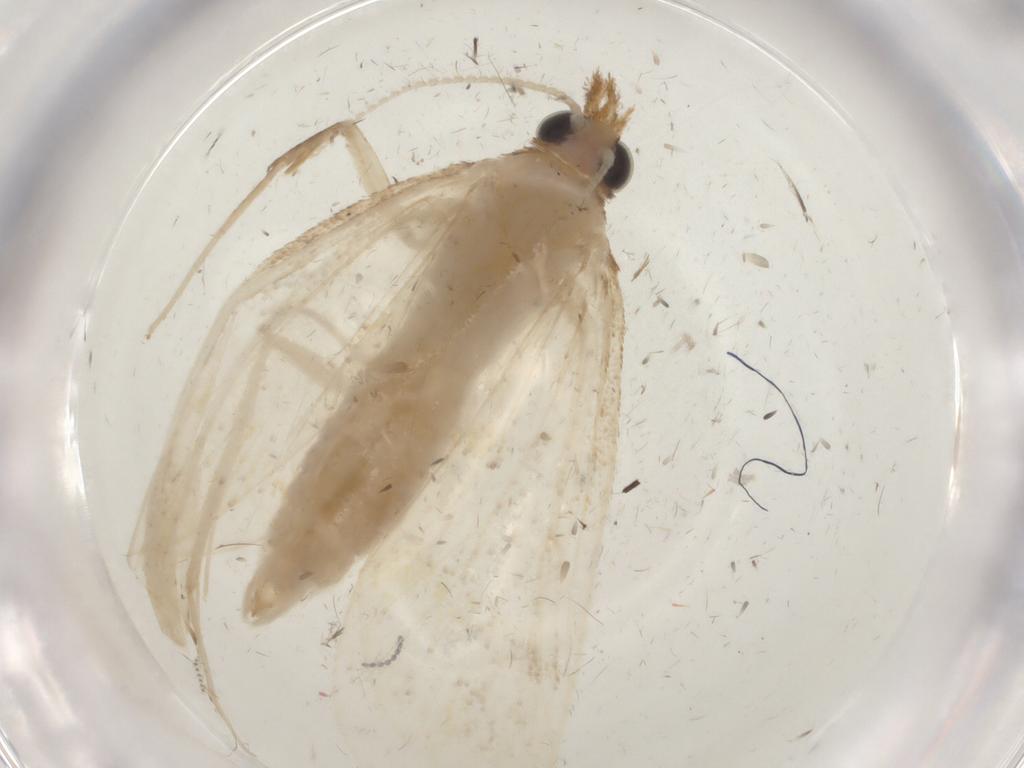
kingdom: Animalia
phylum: Arthropoda
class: Insecta
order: Lepidoptera
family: Crambidae
